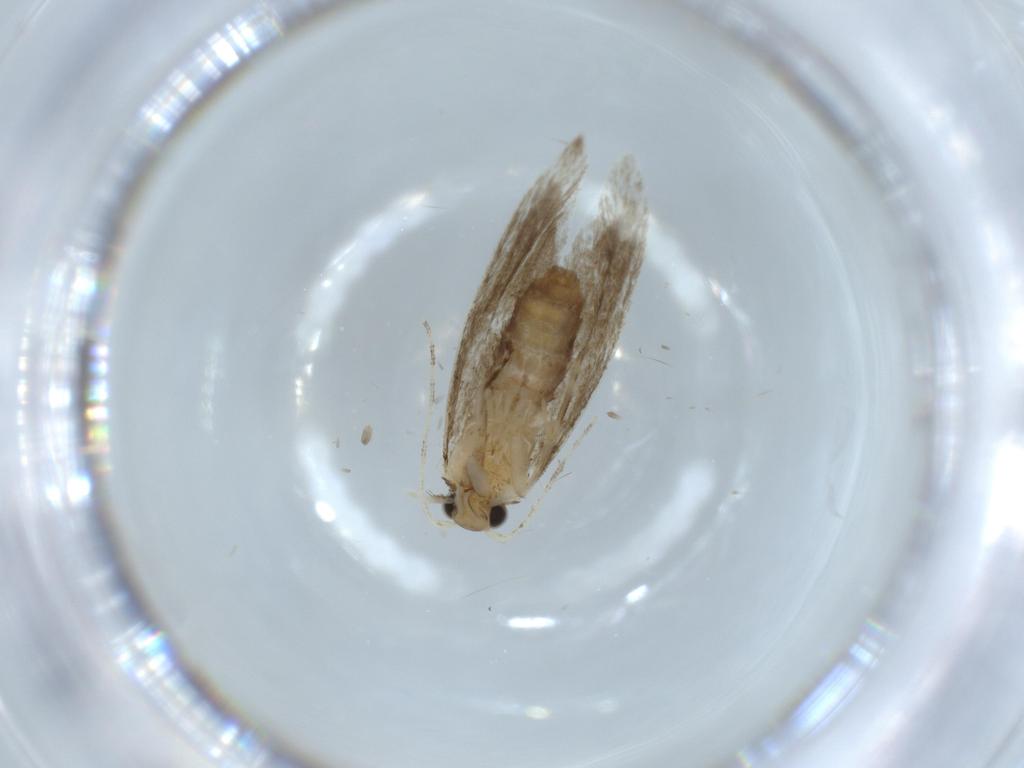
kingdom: Animalia
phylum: Arthropoda
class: Insecta
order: Lepidoptera
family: Tineidae
